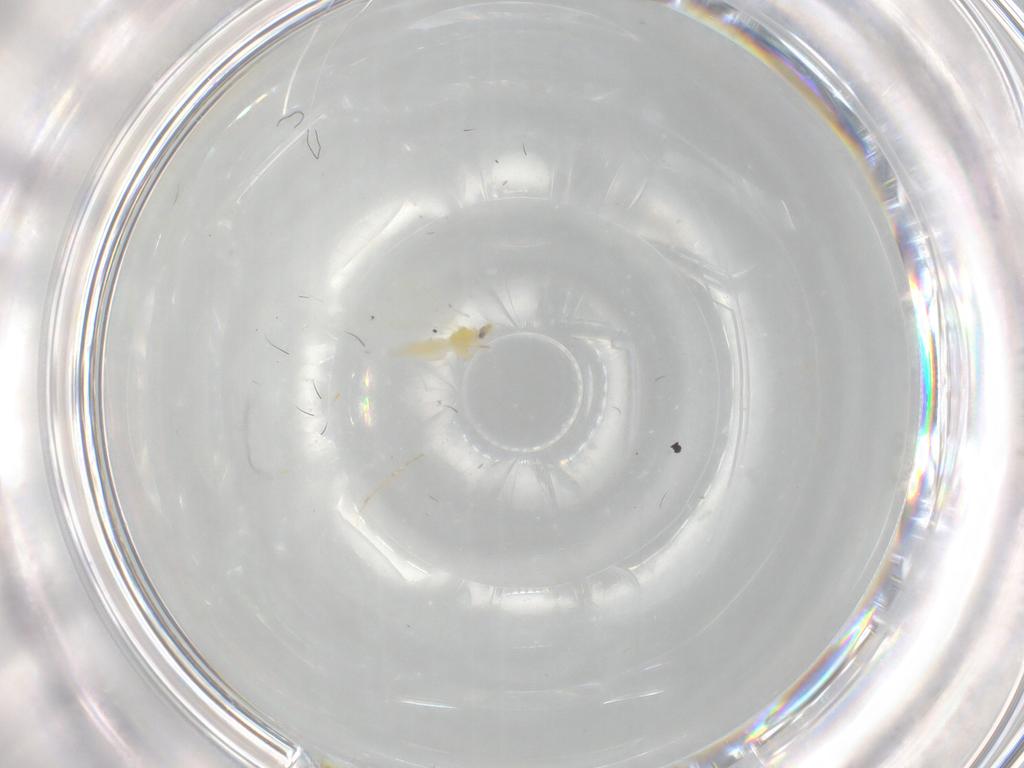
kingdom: Animalia
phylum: Arthropoda
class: Insecta
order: Hemiptera
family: Aleyrodidae
